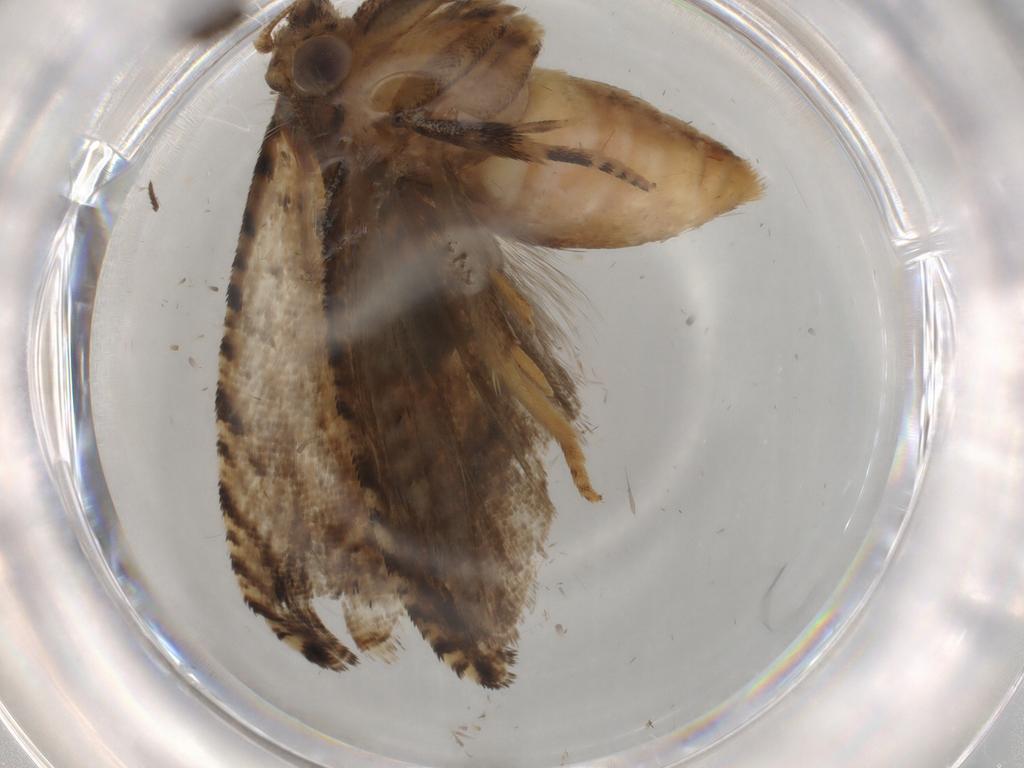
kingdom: Animalia
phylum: Arthropoda
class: Insecta
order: Lepidoptera
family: Tortricidae
